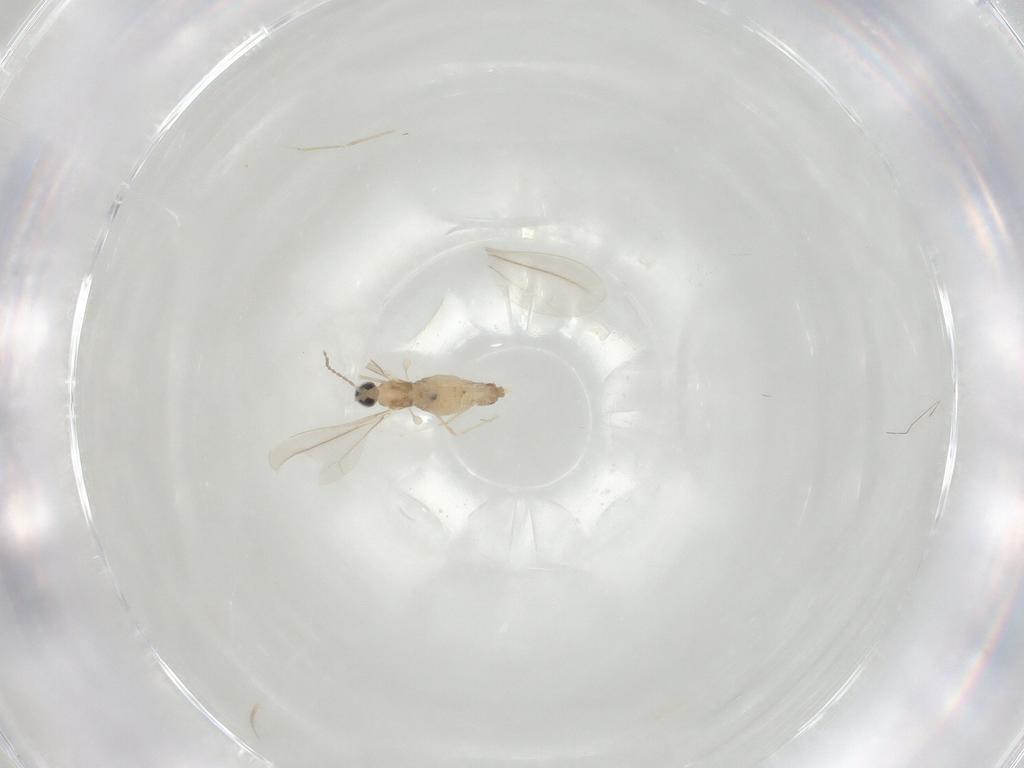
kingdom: Animalia
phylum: Arthropoda
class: Insecta
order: Diptera
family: Cecidomyiidae
